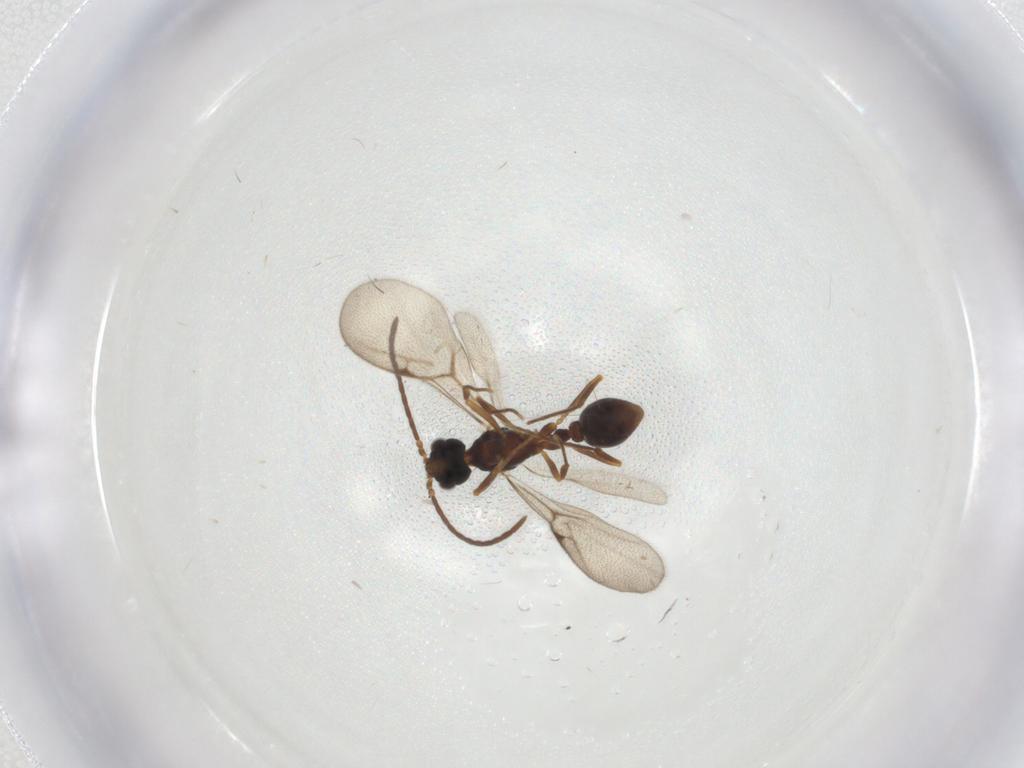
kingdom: Animalia
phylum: Arthropoda
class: Insecta
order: Hymenoptera
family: Formicidae
